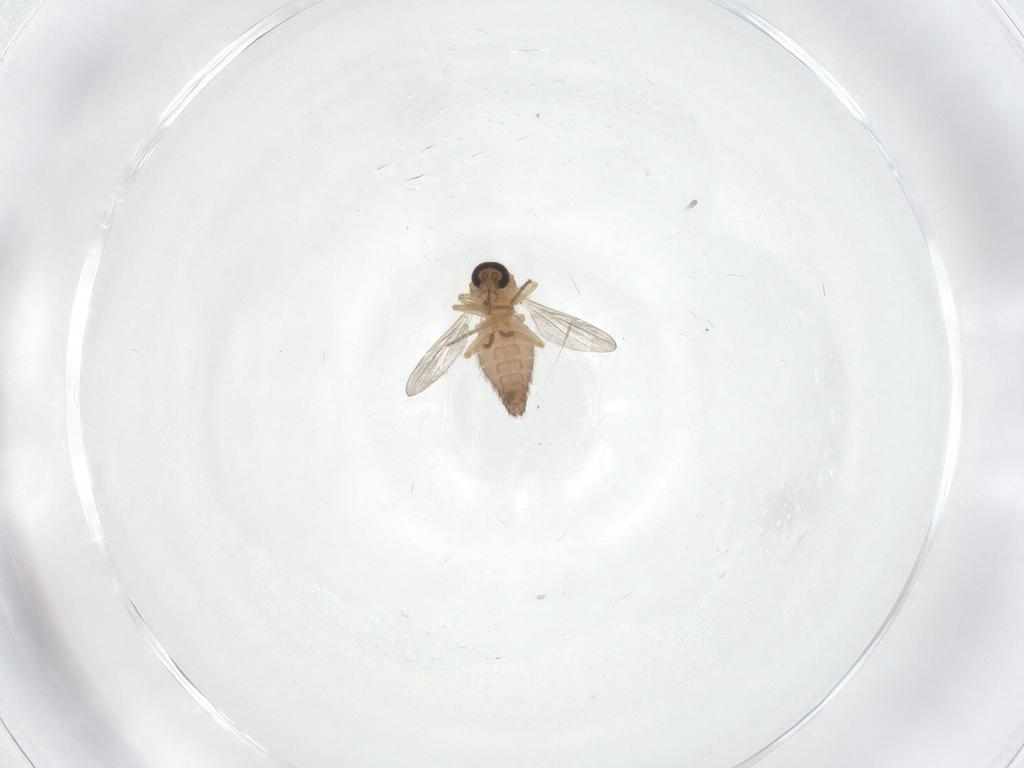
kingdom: Animalia
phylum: Arthropoda
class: Insecta
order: Diptera
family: Ceratopogonidae
